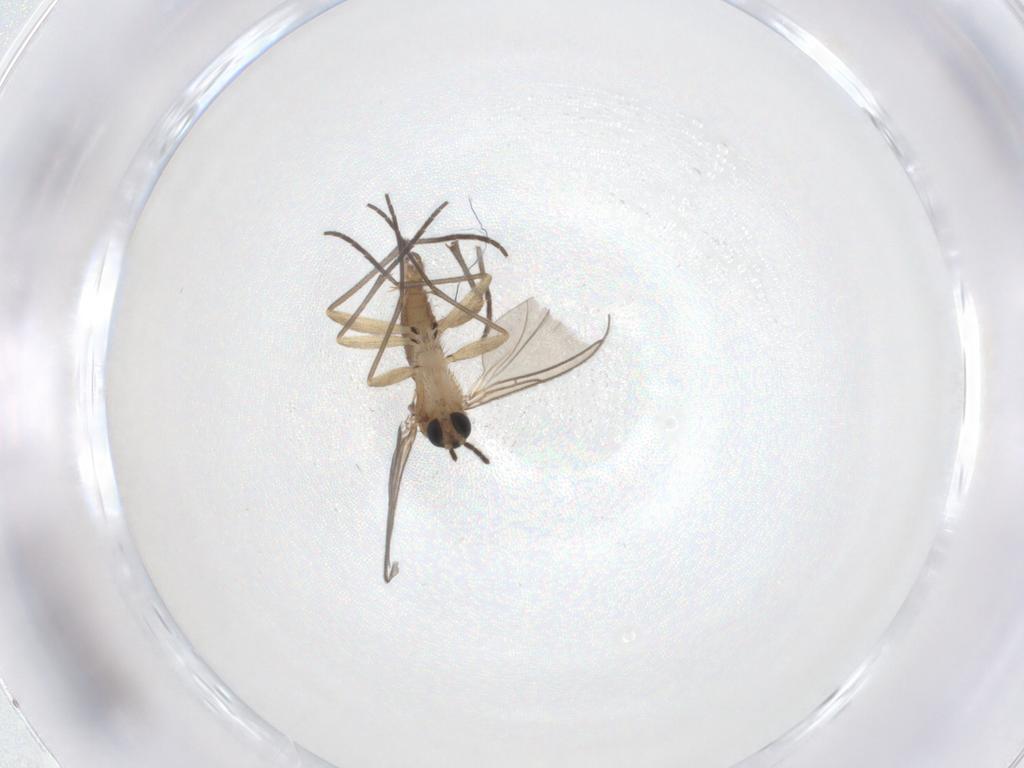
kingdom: Animalia
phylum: Arthropoda
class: Insecta
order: Diptera
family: Sciaridae
